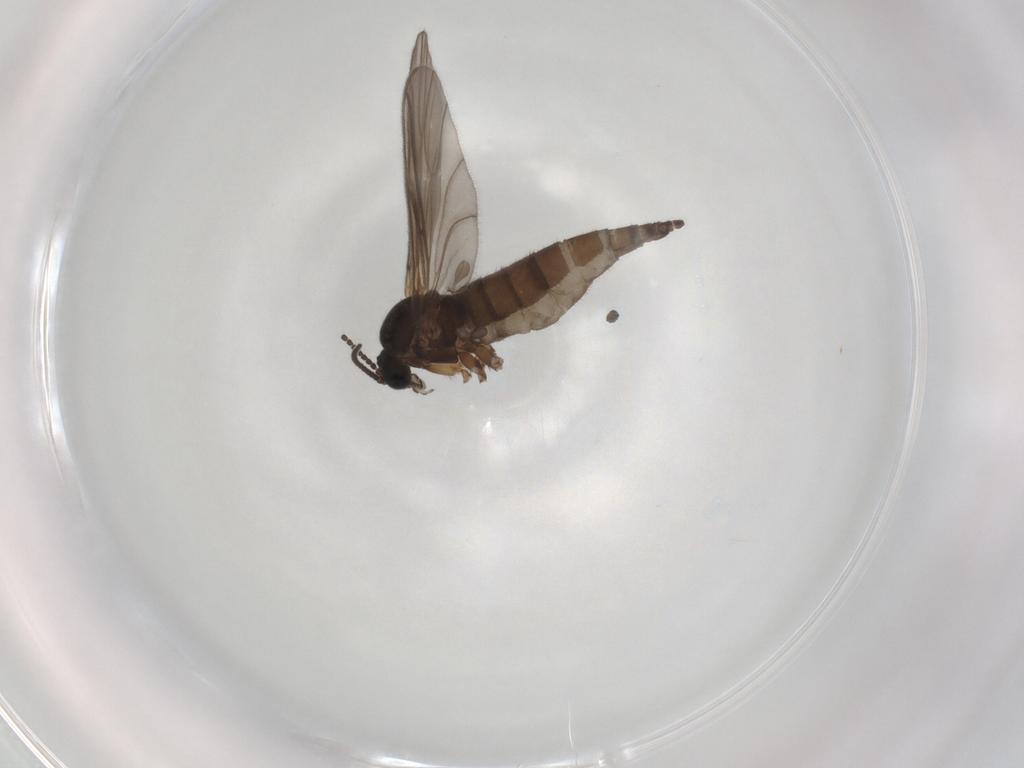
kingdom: Animalia
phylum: Arthropoda
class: Insecta
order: Diptera
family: Sciaridae
